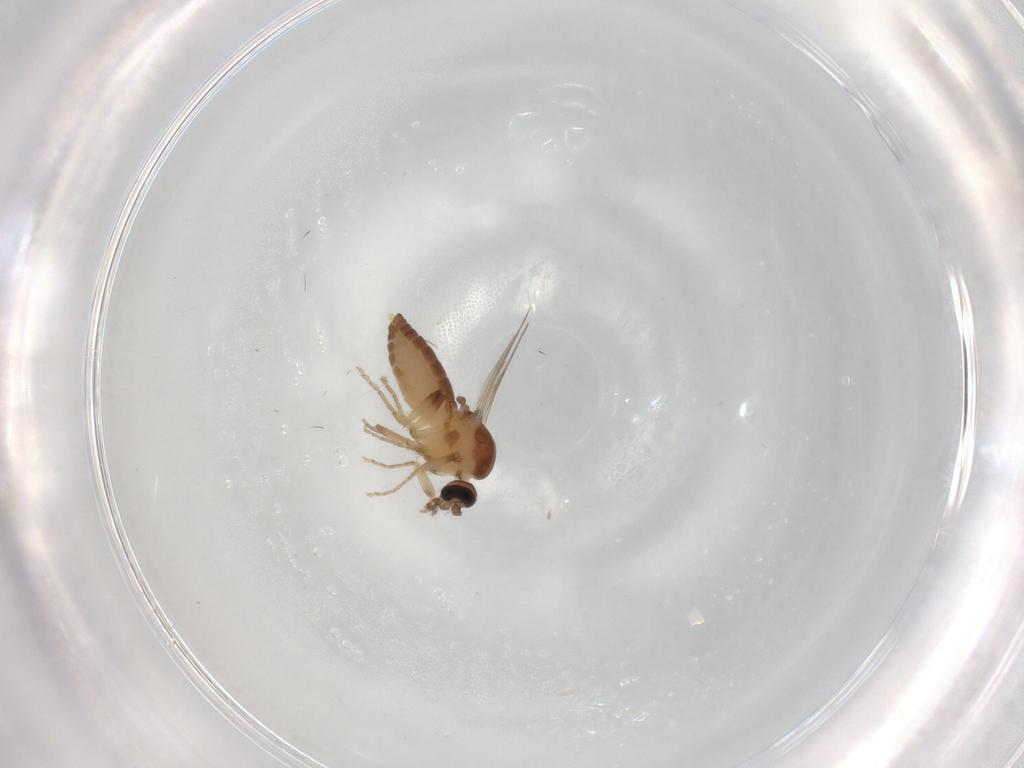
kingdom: Animalia
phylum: Arthropoda
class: Insecta
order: Diptera
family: Ceratopogonidae
